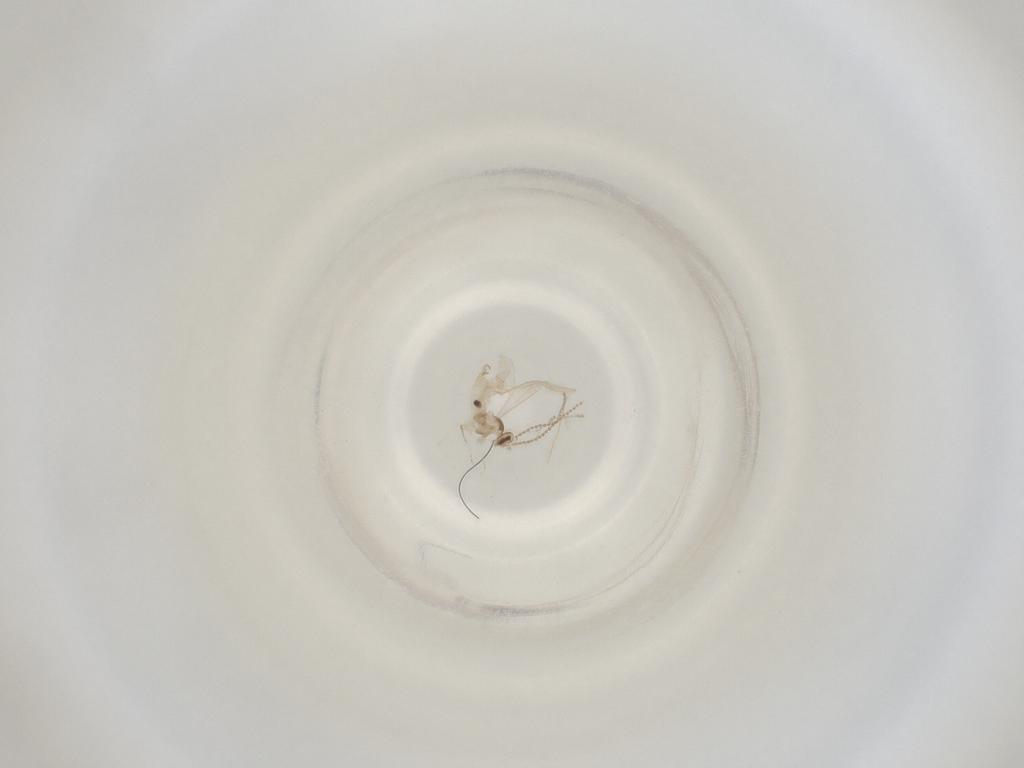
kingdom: Animalia
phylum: Arthropoda
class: Insecta
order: Diptera
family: Cecidomyiidae
